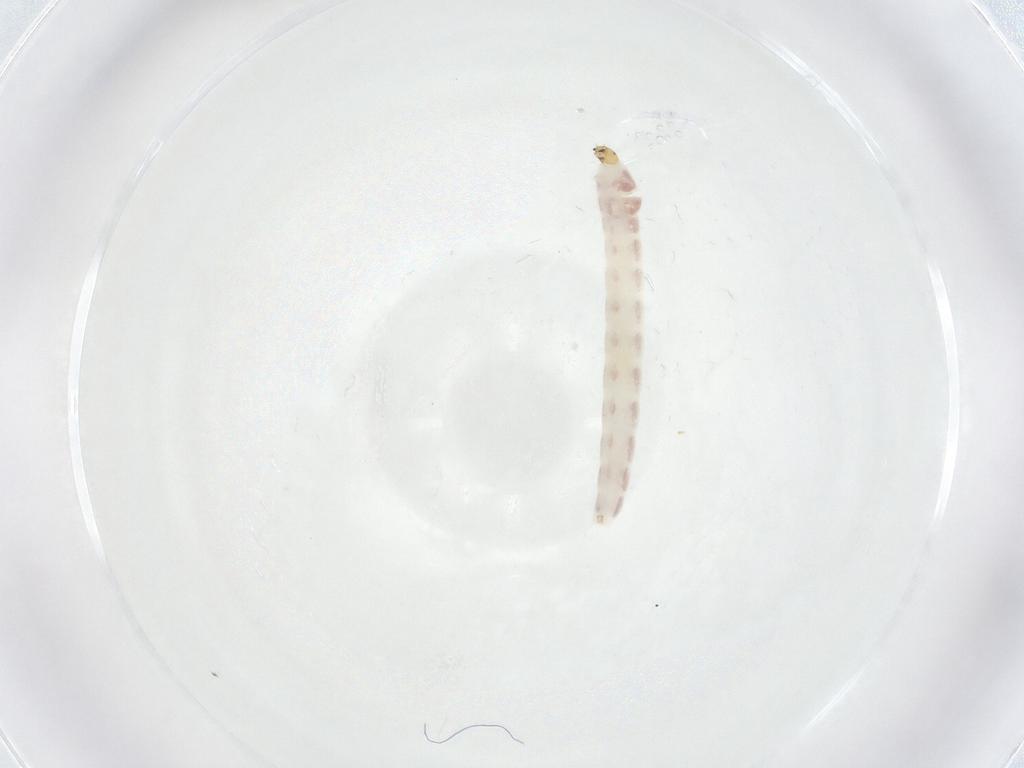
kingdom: Animalia
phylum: Arthropoda
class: Insecta
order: Diptera
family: Chironomidae
